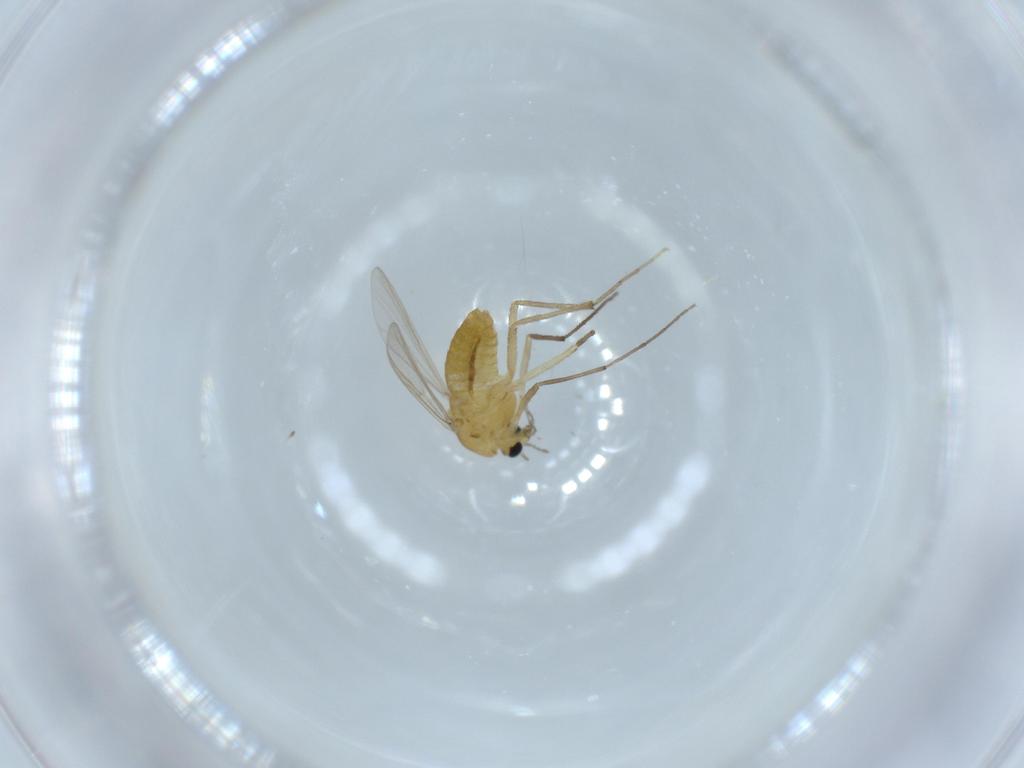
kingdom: Animalia
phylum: Arthropoda
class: Insecta
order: Diptera
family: Chironomidae
